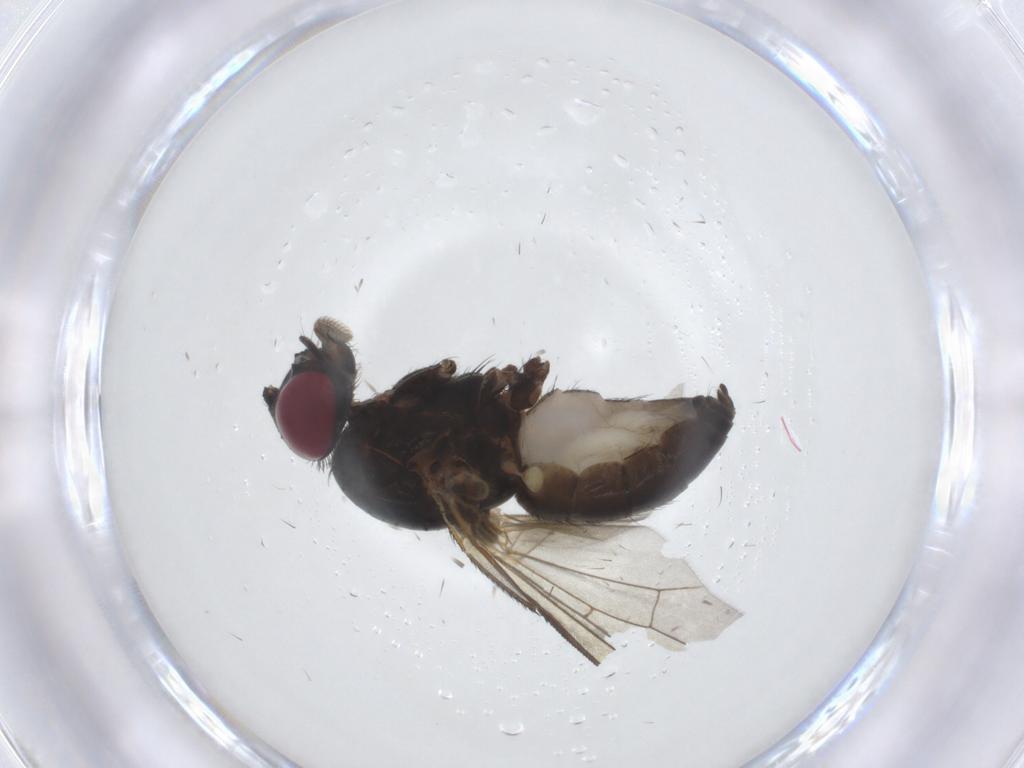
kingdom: Animalia
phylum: Arthropoda
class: Insecta
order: Diptera
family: Fannia
